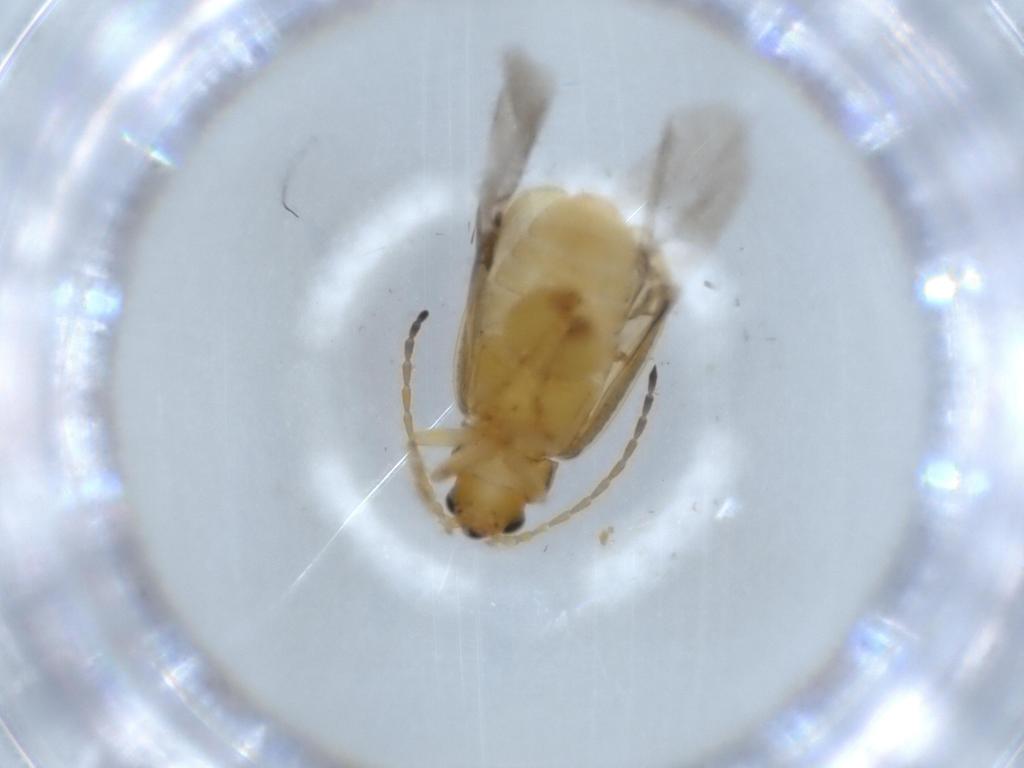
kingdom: Animalia
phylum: Arthropoda
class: Insecta
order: Coleoptera
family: Chrysomelidae
